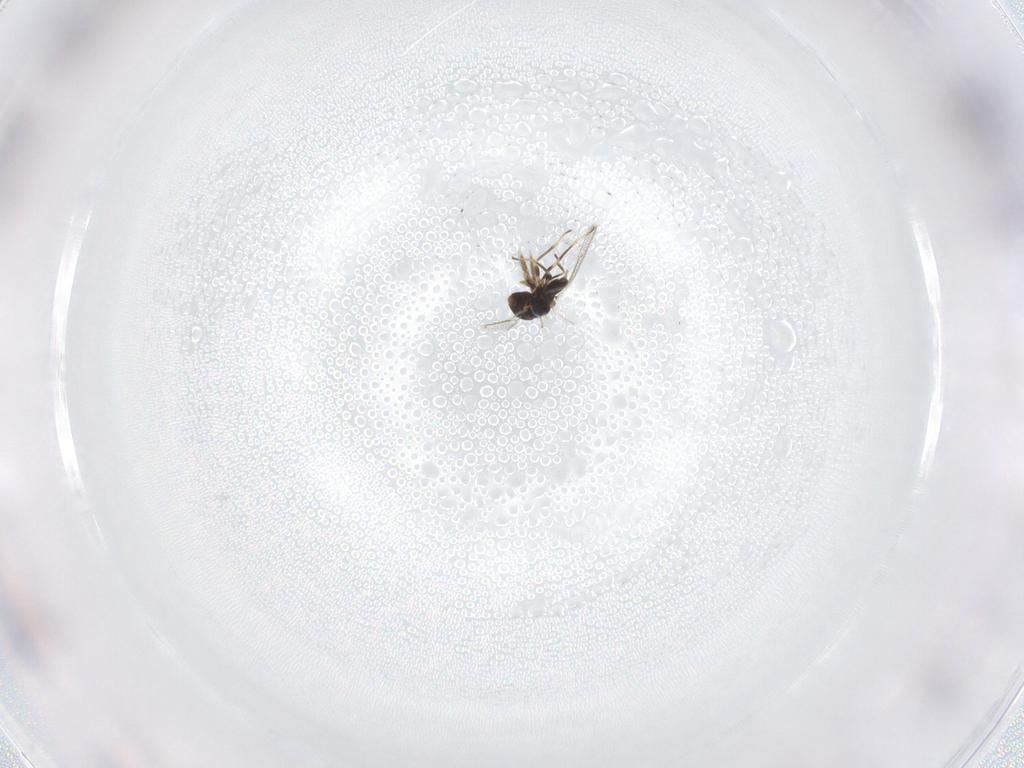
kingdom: Animalia
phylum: Arthropoda
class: Insecta
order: Hymenoptera
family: Eulophidae
